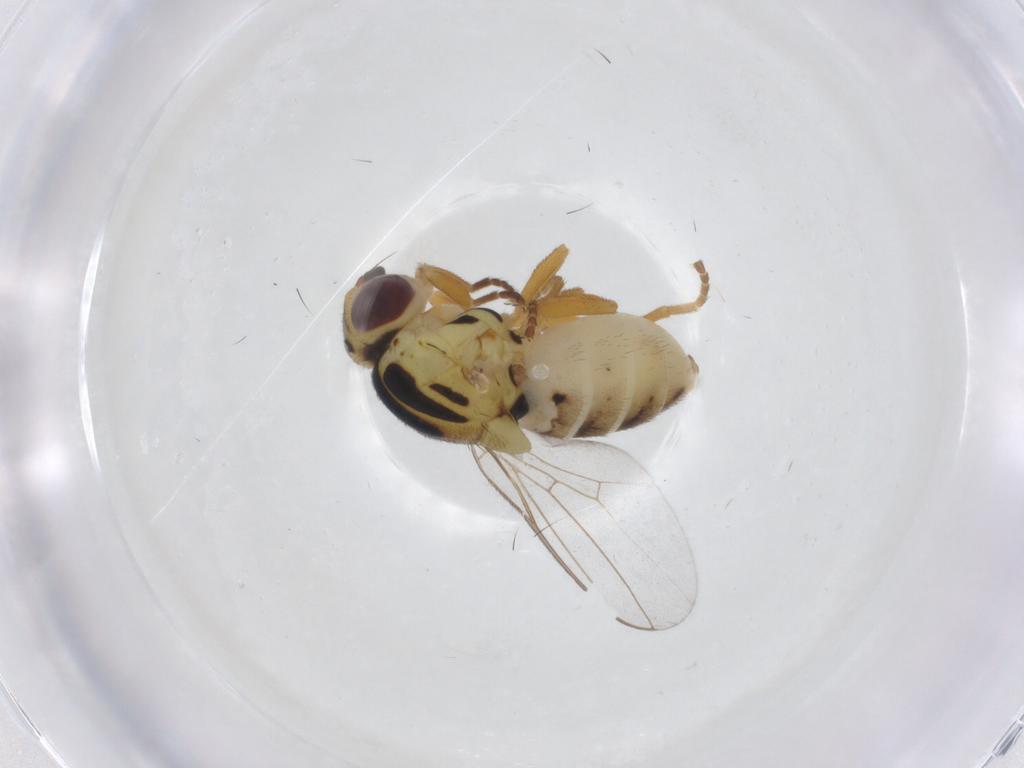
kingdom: Animalia
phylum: Arthropoda
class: Insecta
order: Diptera
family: Chloropidae
